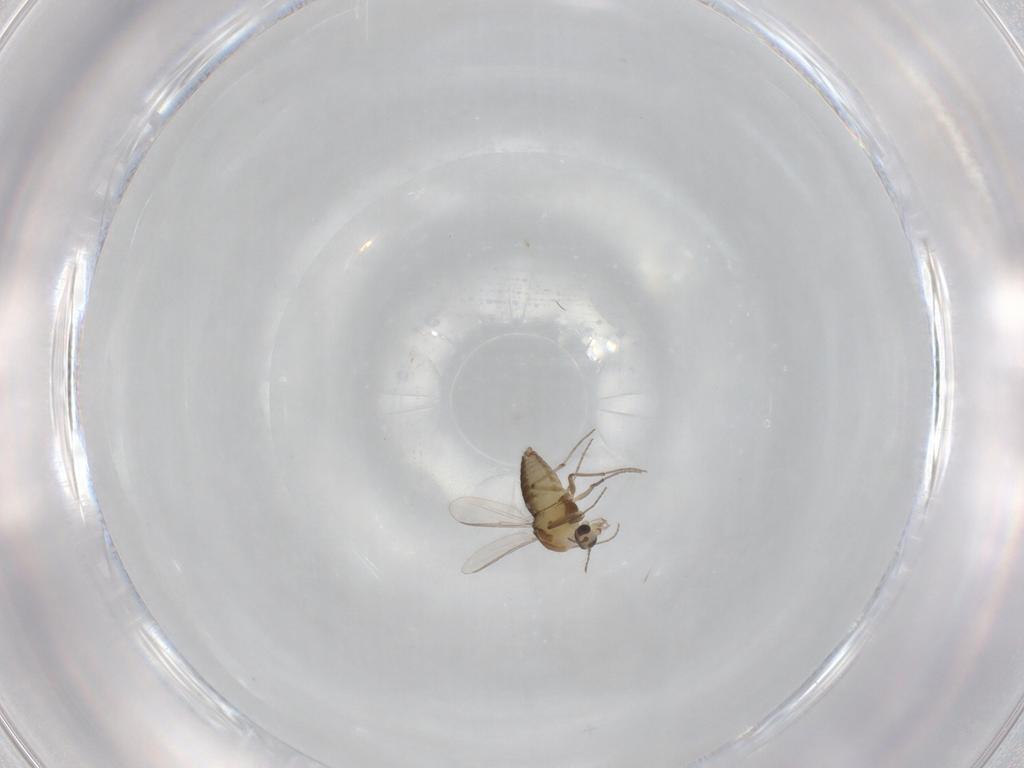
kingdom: Animalia
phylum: Arthropoda
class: Insecta
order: Diptera
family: Chironomidae
